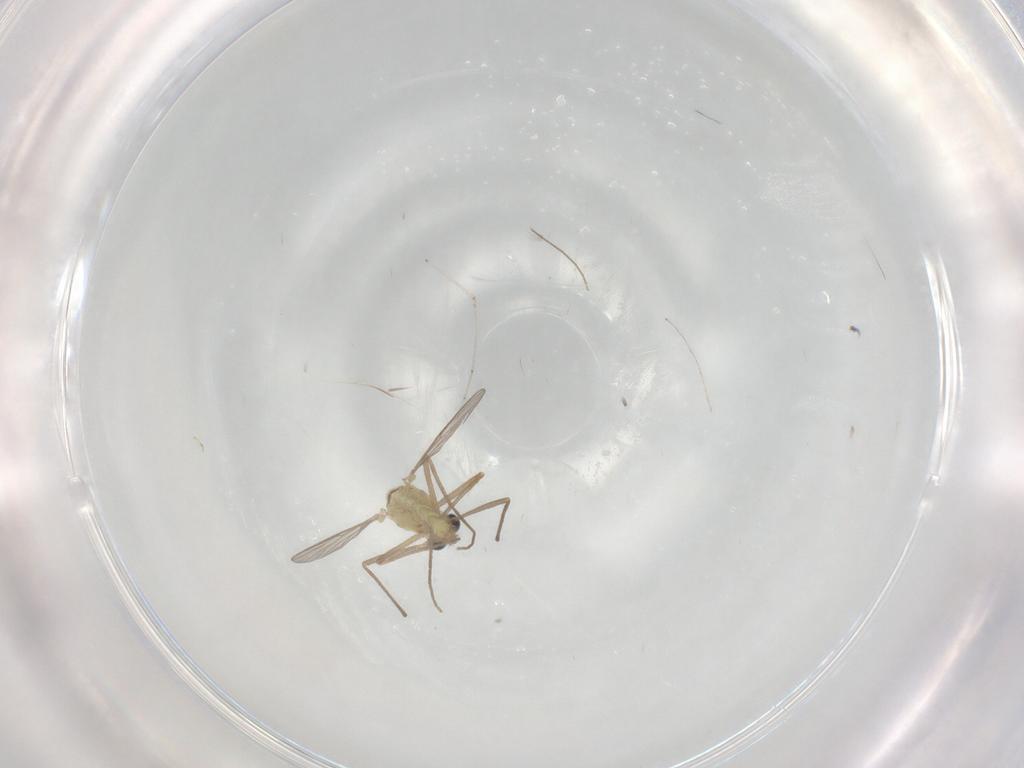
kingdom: Animalia
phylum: Arthropoda
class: Insecta
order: Diptera
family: Chironomidae
